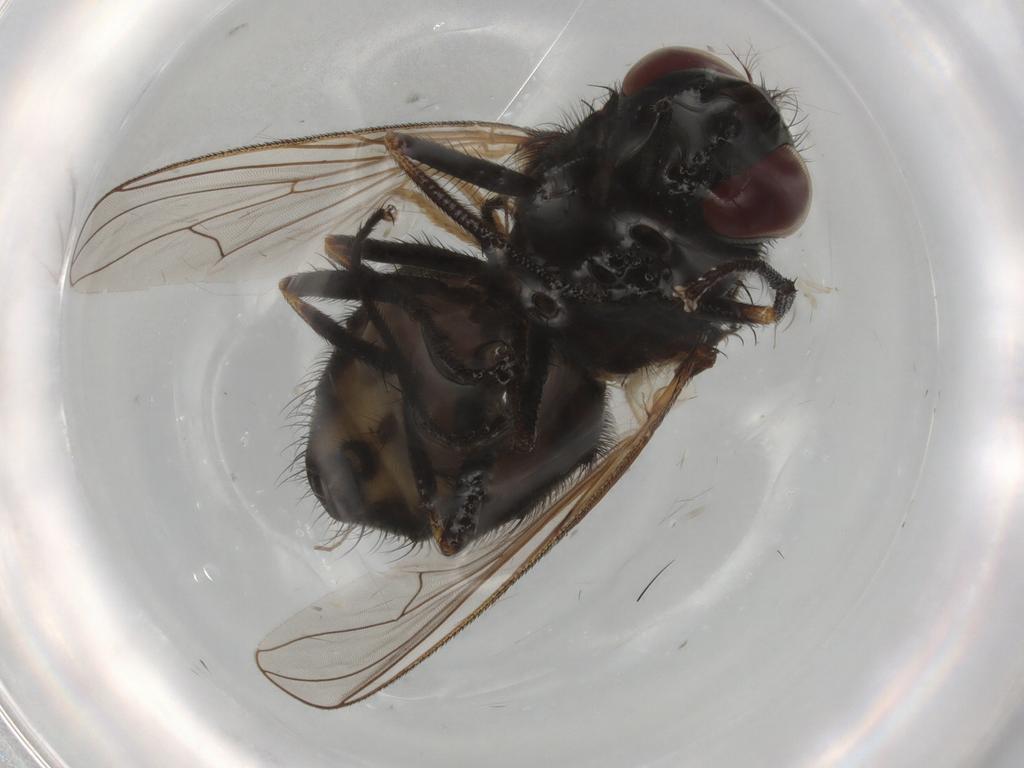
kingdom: Animalia
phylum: Arthropoda
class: Insecta
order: Diptera
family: Muscidae
